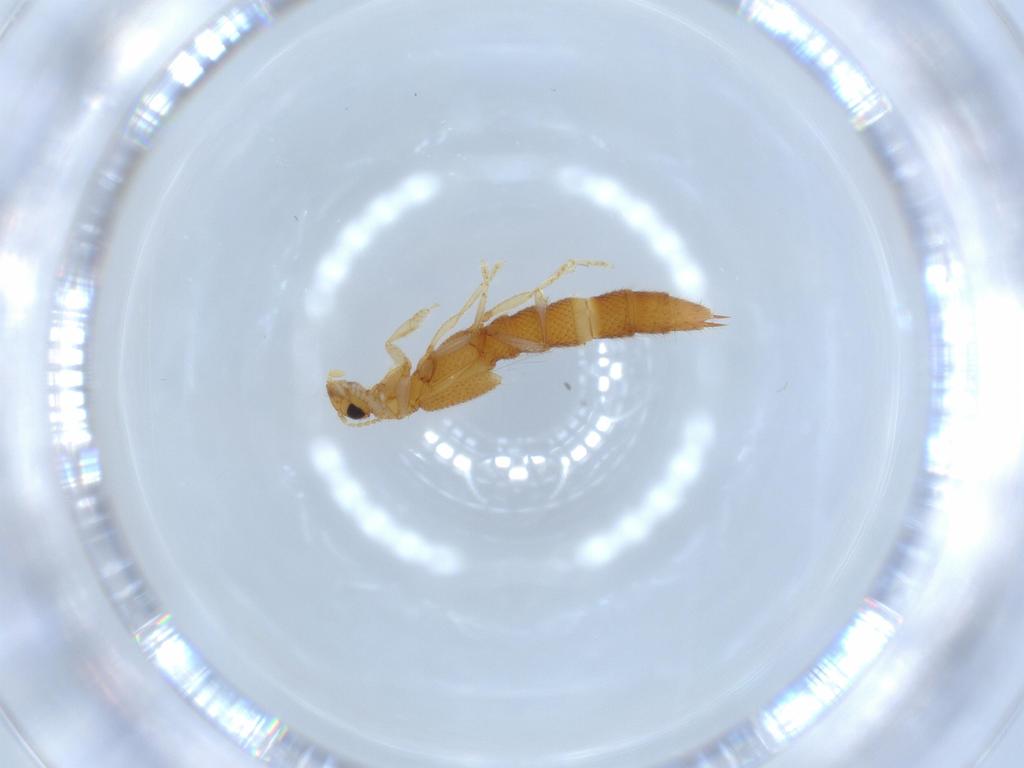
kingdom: Animalia
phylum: Arthropoda
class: Insecta
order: Coleoptera
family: Staphylinidae
